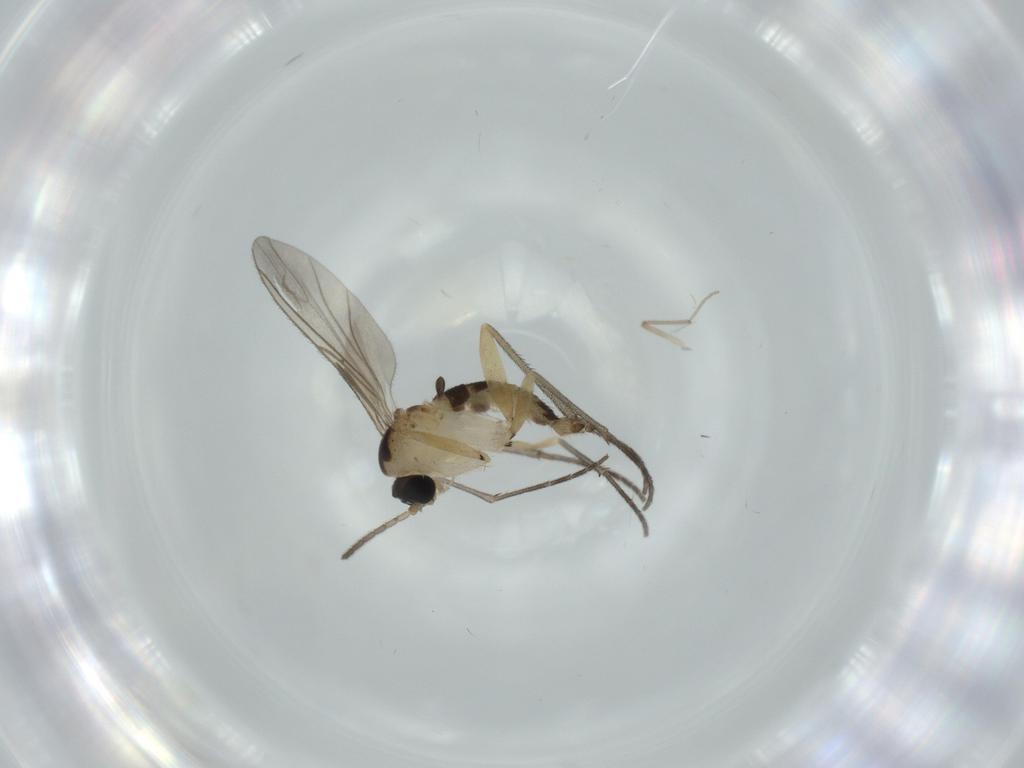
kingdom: Animalia
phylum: Arthropoda
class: Insecta
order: Diptera
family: Sciaridae
